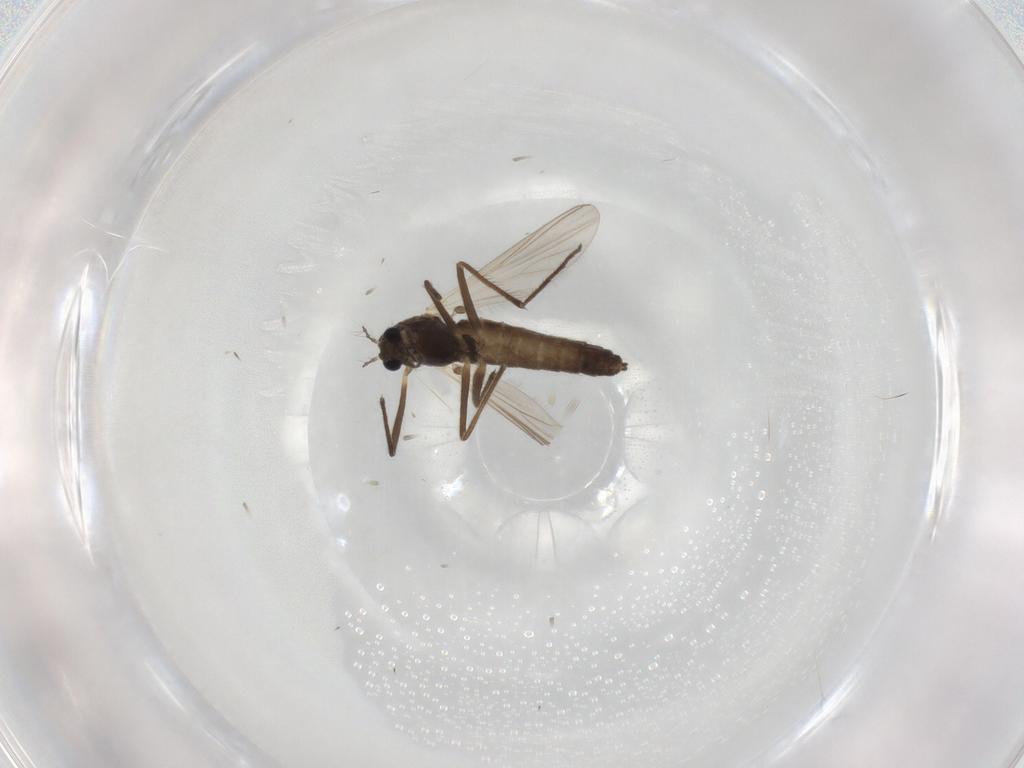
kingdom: Animalia
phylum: Arthropoda
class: Insecta
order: Diptera
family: Chironomidae
